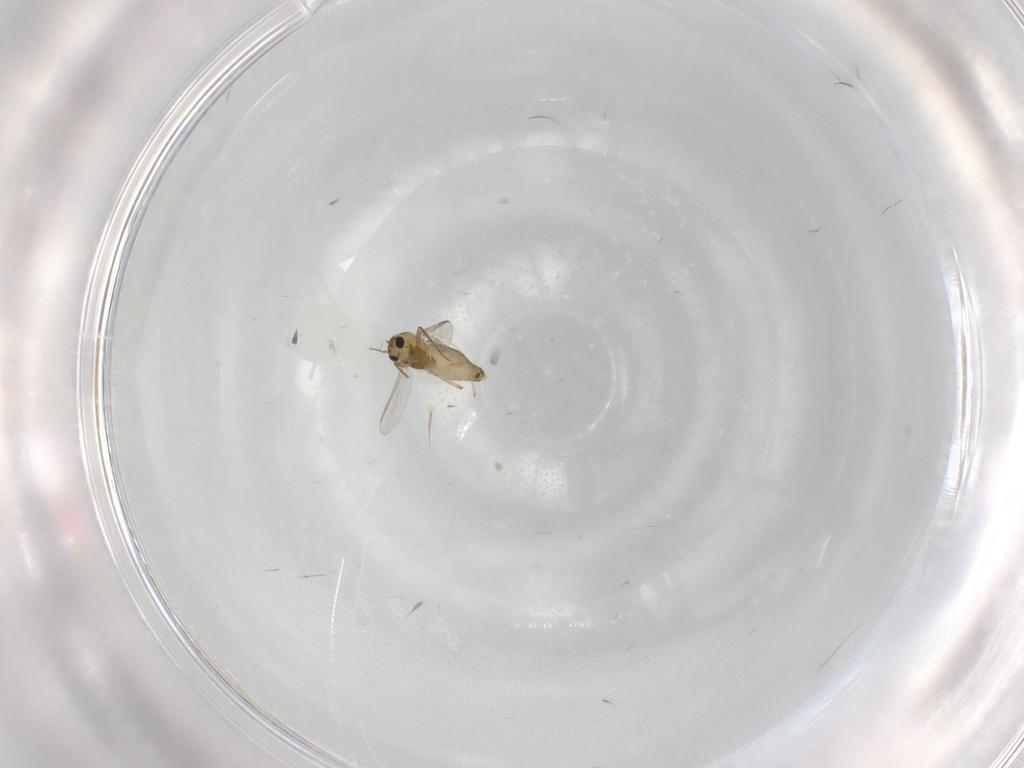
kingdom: Animalia
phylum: Arthropoda
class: Insecta
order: Diptera
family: Chironomidae
